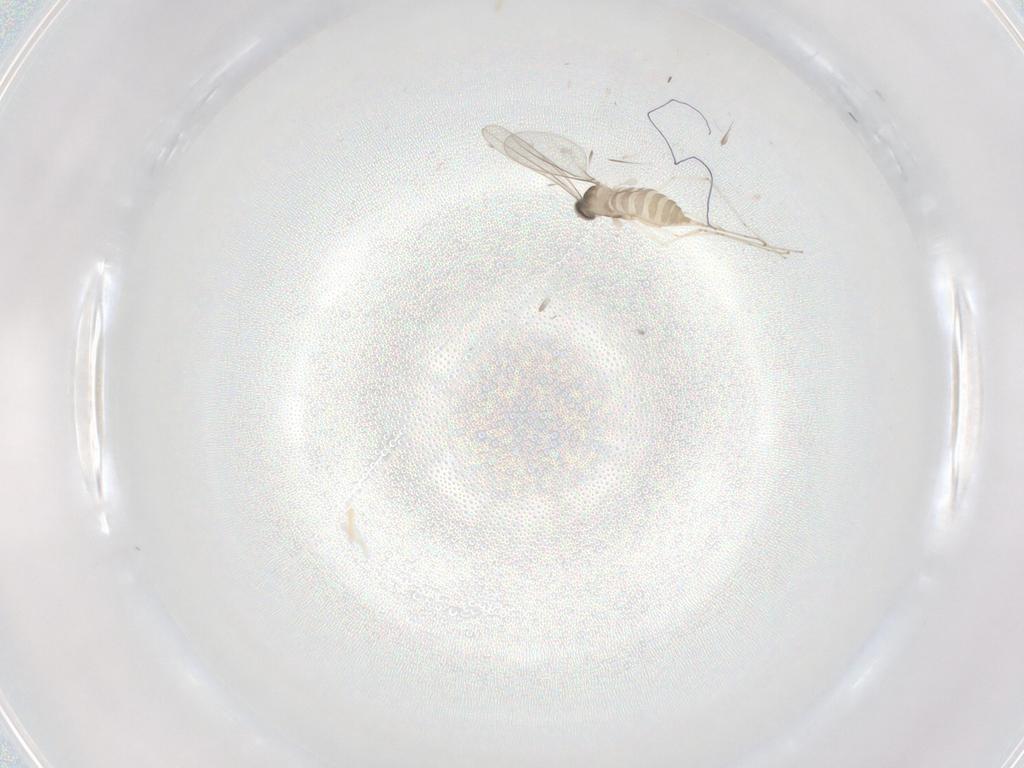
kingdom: Animalia
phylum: Arthropoda
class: Insecta
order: Diptera
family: Cecidomyiidae
